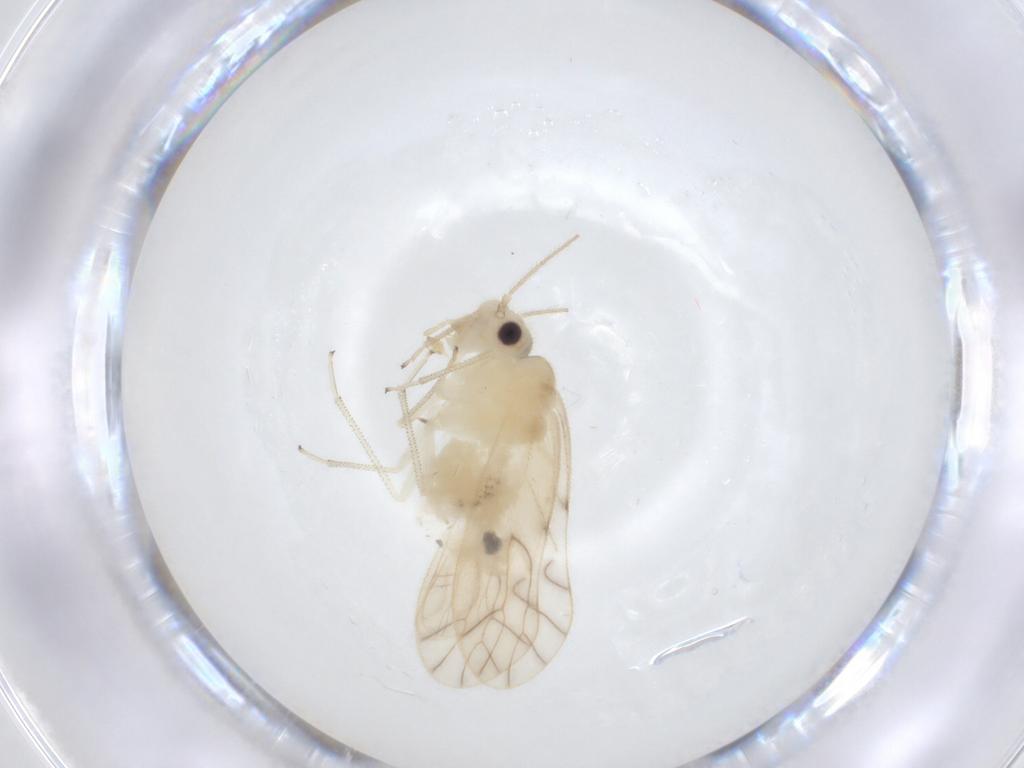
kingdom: Animalia
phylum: Arthropoda
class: Insecta
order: Psocodea
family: Caeciliusidae
